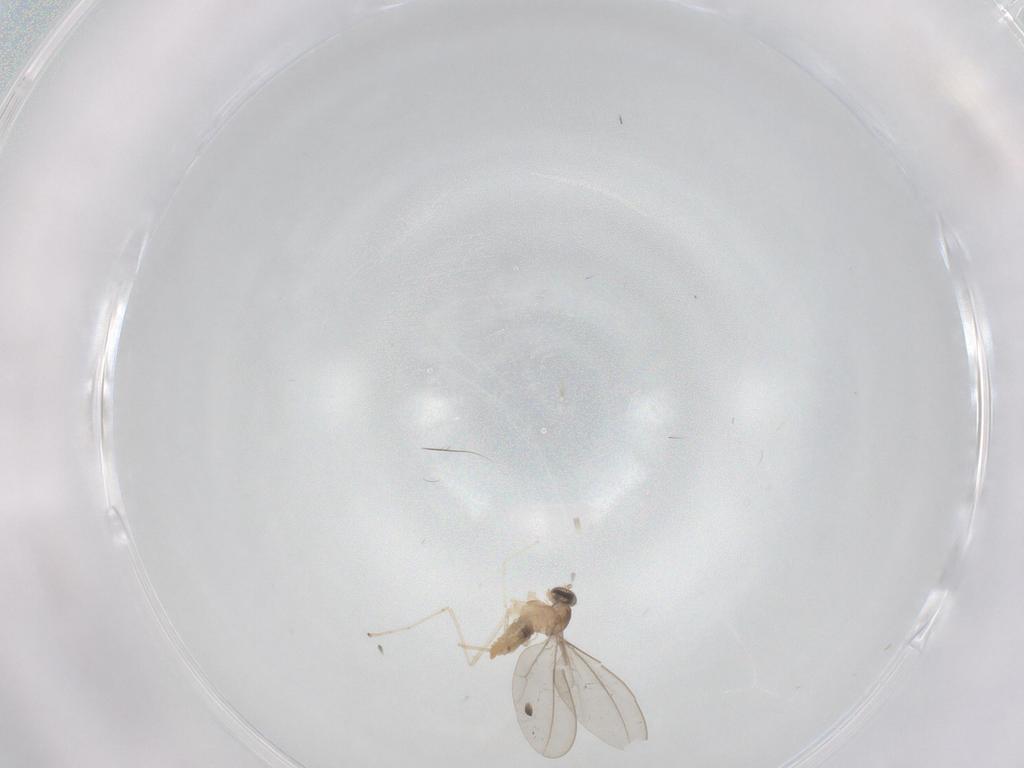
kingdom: Animalia
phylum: Arthropoda
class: Insecta
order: Diptera
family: Cecidomyiidae
